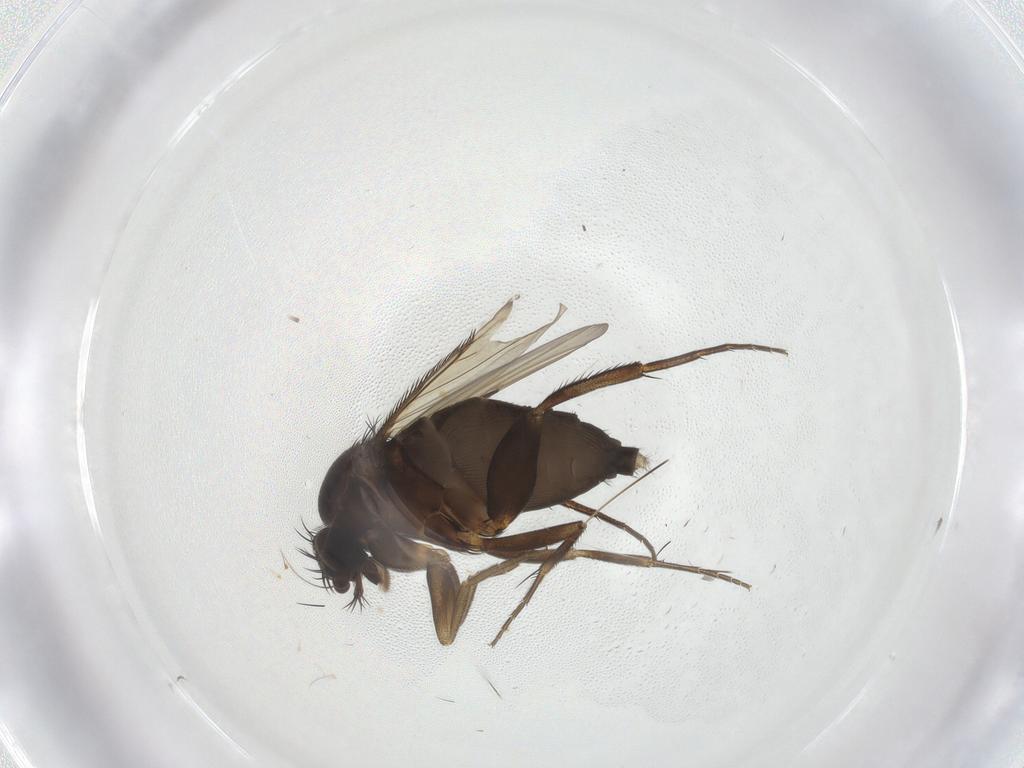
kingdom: Animalia
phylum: Arthropoda
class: Insecta
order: Diptera
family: Phoridae
